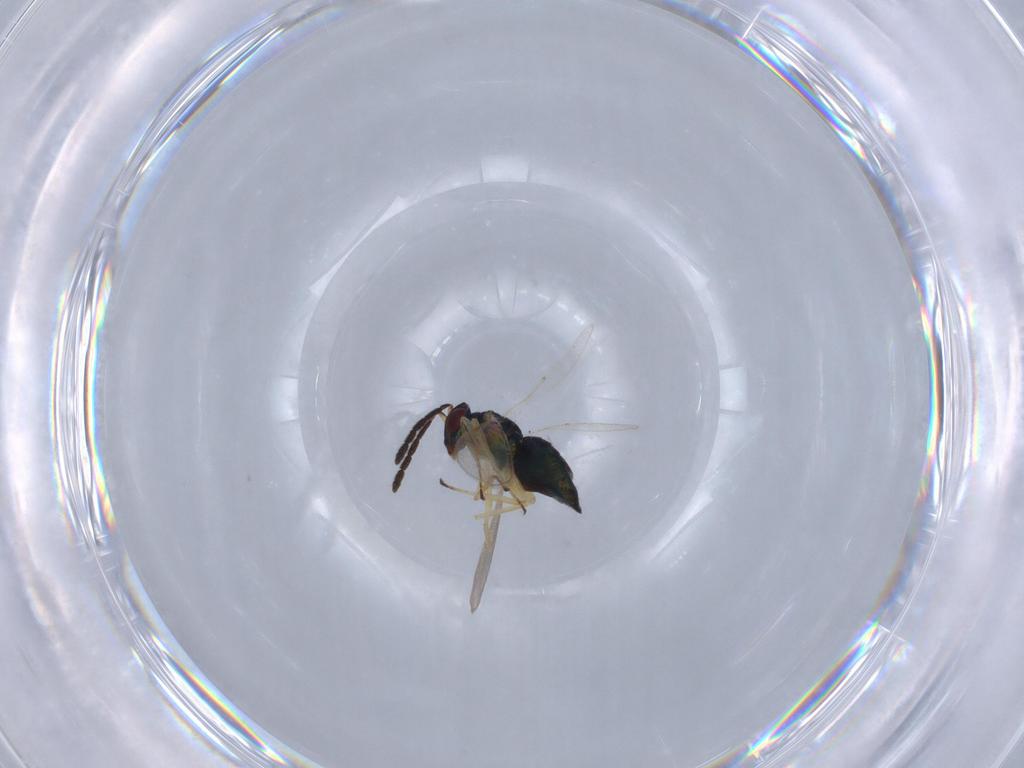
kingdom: Animalia
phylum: Arthropoda
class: Insecta
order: Hymenoptera
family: Eulophidae
